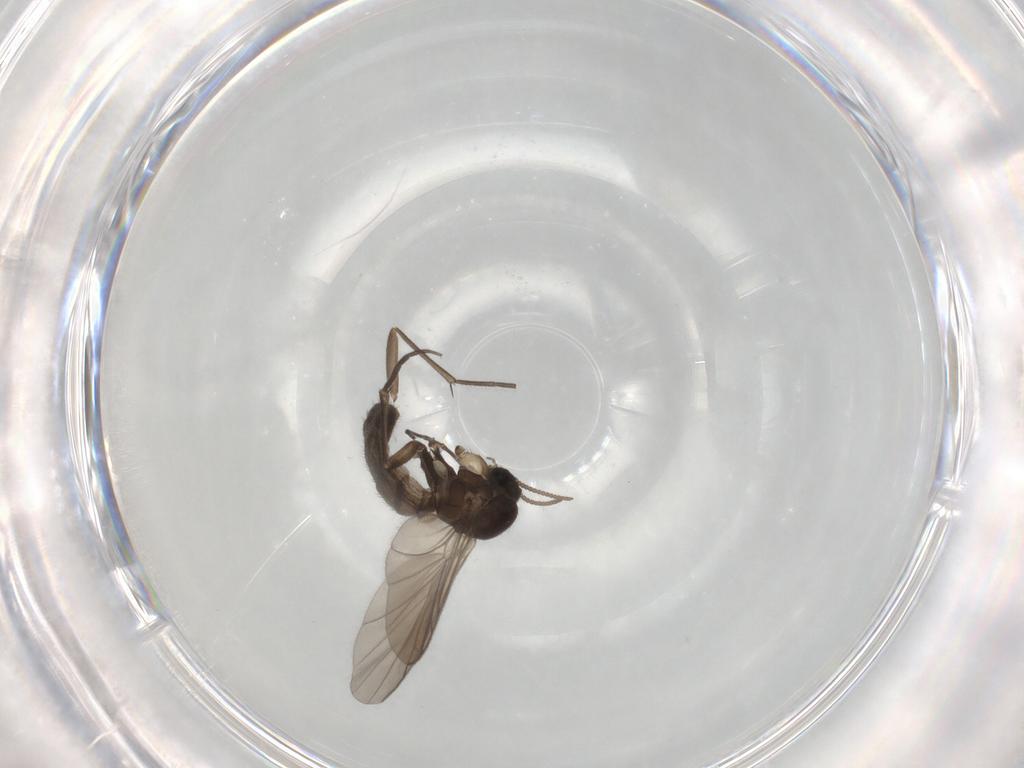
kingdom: Animalia
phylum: Arthropoda
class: Insecta
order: Diptera
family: Keroplatidae
